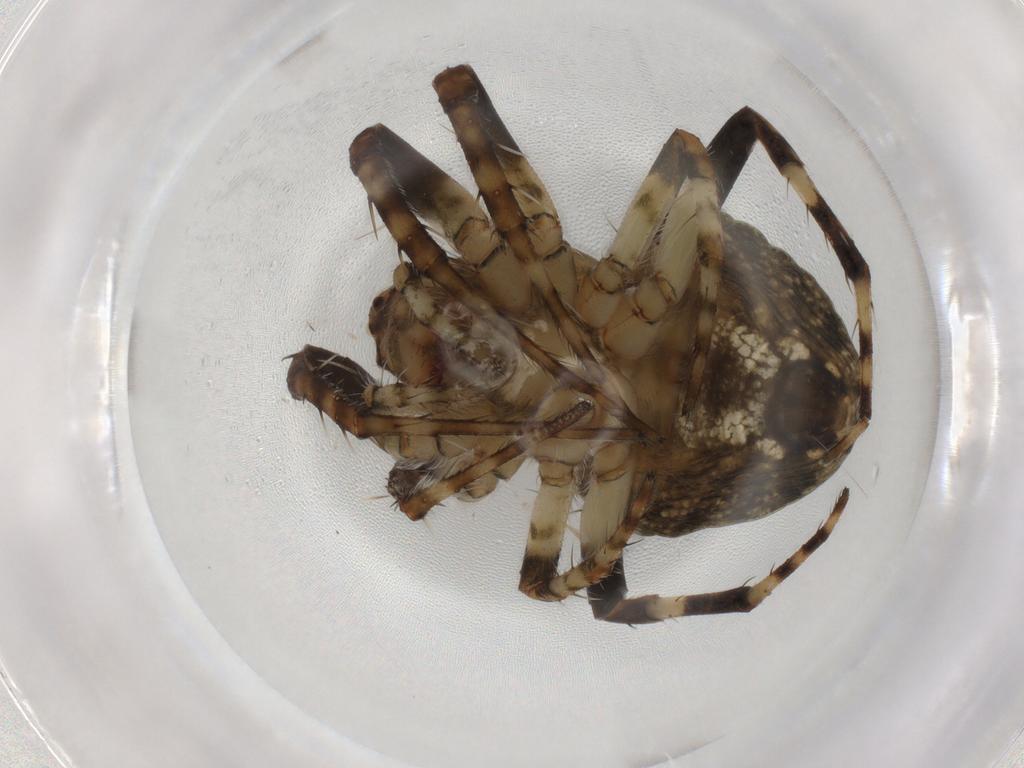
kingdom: Animalia
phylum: Arthropoda
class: Arachnida
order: Araneae
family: Araneidae
